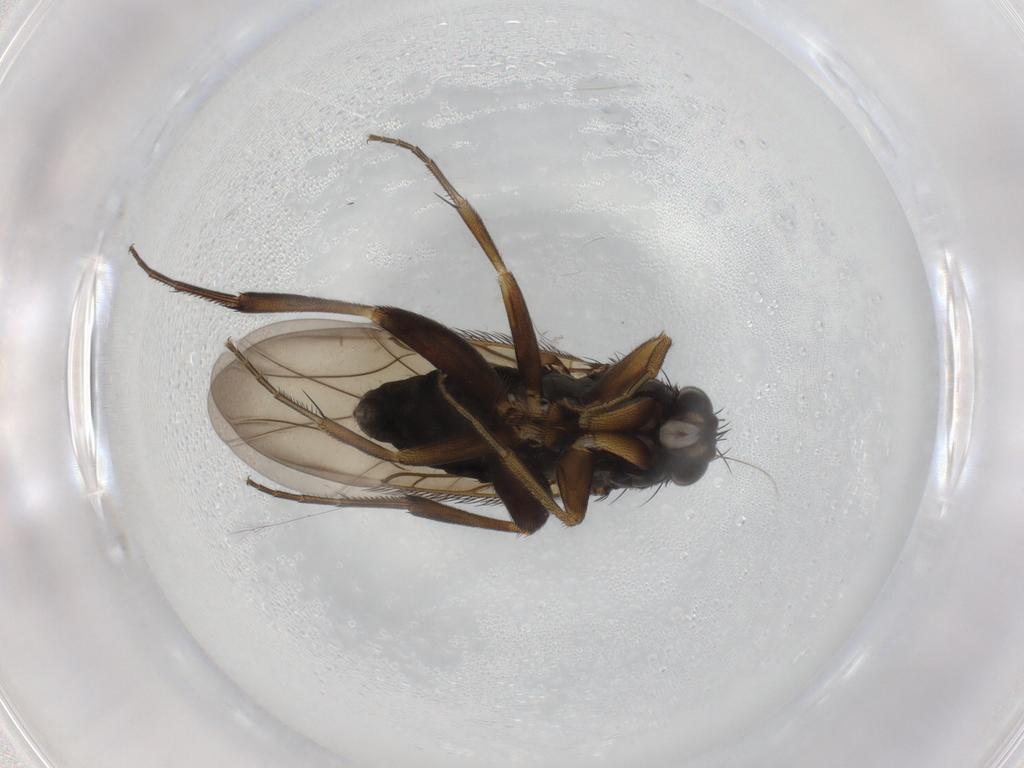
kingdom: Animalia
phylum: Arthropoda
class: Insecta
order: Diptera
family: Phoridae
